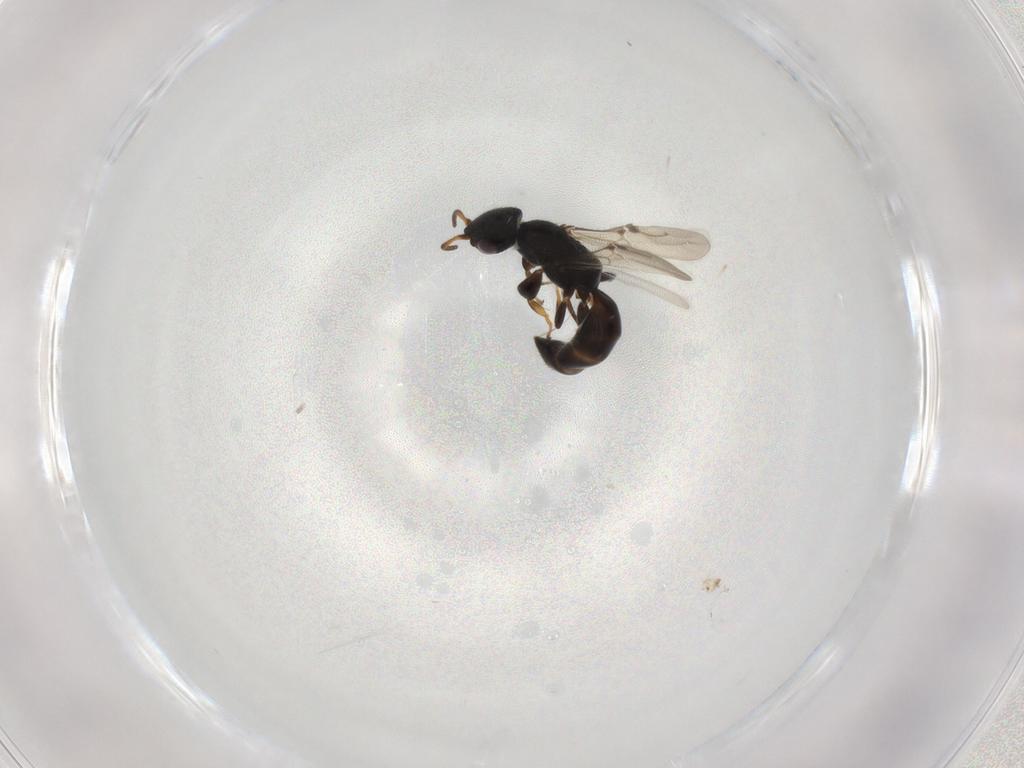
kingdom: Animalia
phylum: Arthropoda
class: Insecta
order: Hymenoptera
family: Bethylidae
